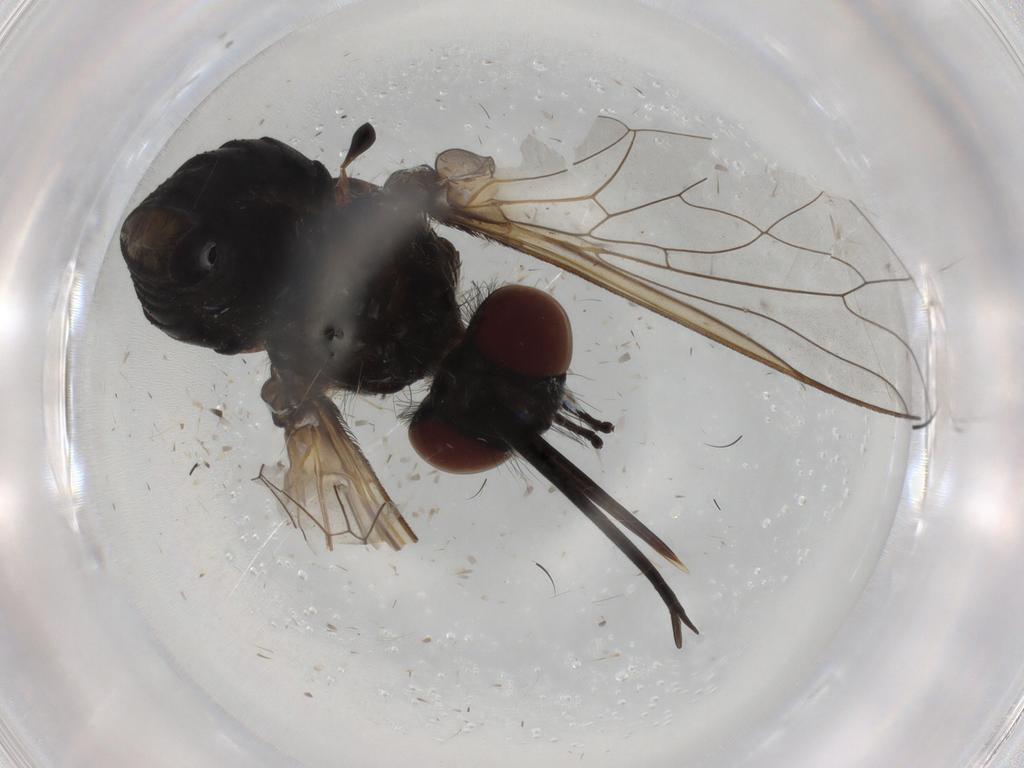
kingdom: Animalia
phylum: Arthropoda
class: Insecta
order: Diptera
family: Bombyliidae
